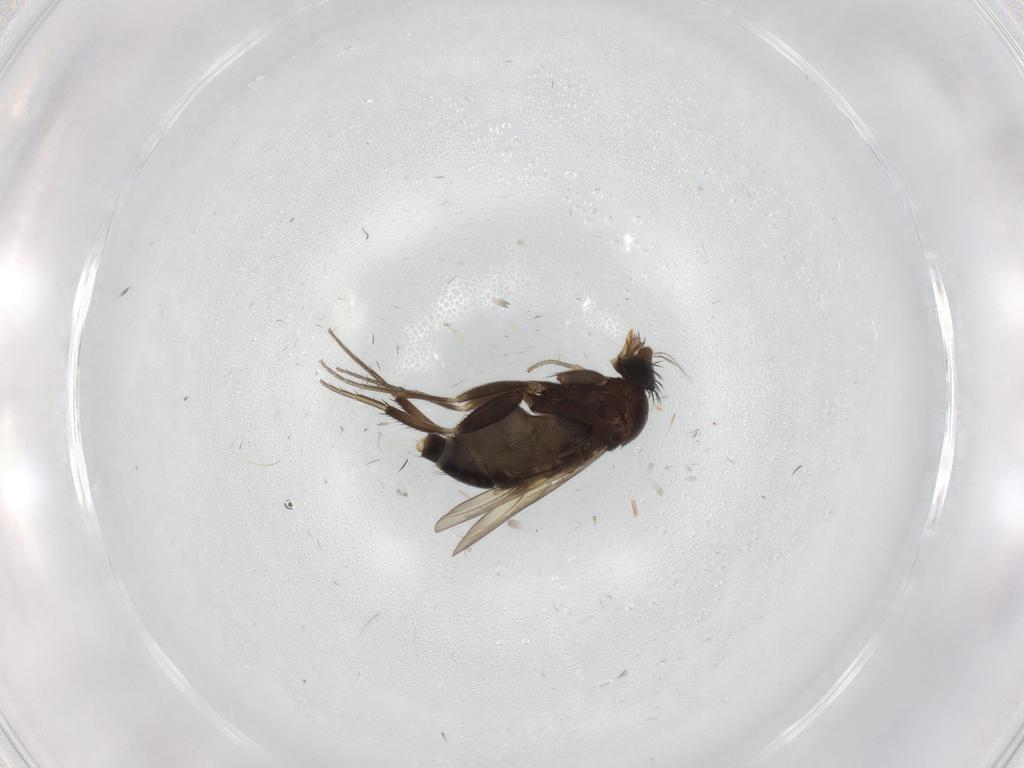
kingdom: Animalia
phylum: Arthropoda
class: Insecta
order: Diptera
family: Phoridae
